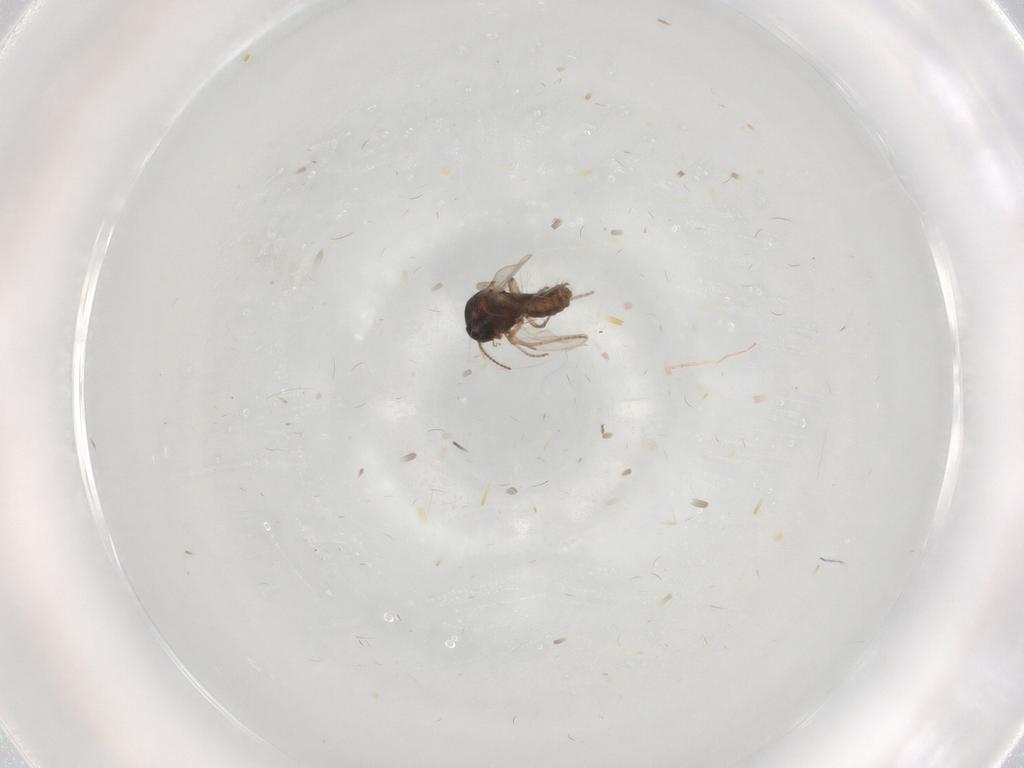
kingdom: Animalia
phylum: Arthropoda
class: Insecta
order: Diptera
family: Ceratopogonidae
